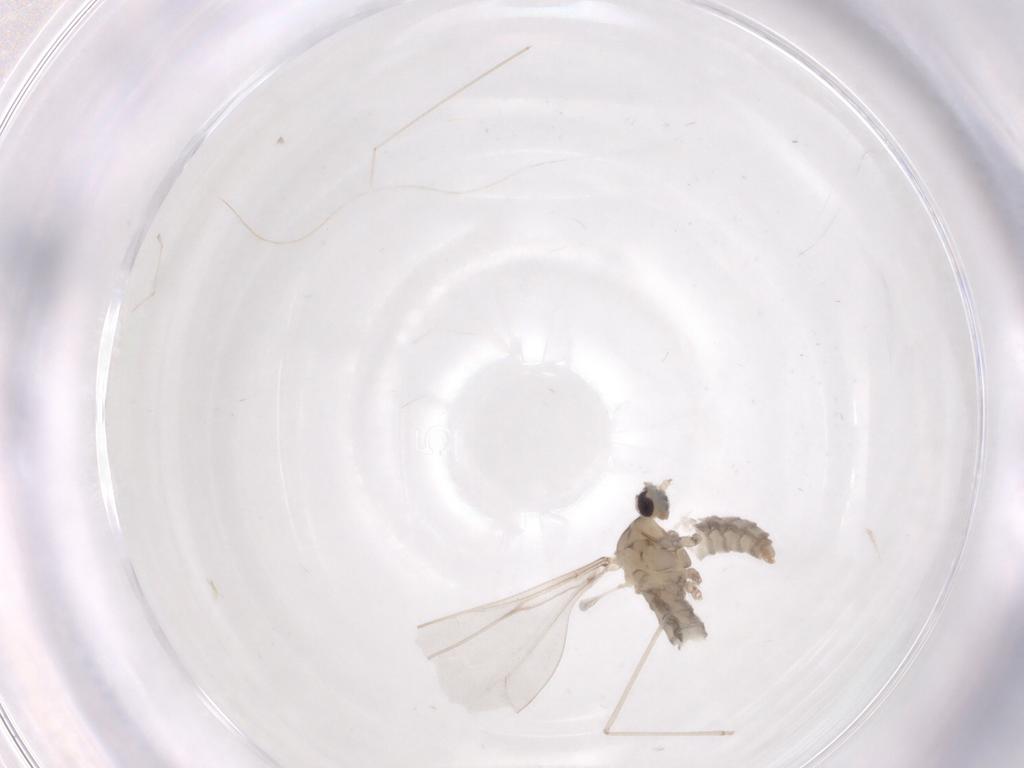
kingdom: Animalia
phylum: Arthropoda
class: Insecta
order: Diptera
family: Cecidomyiidae
